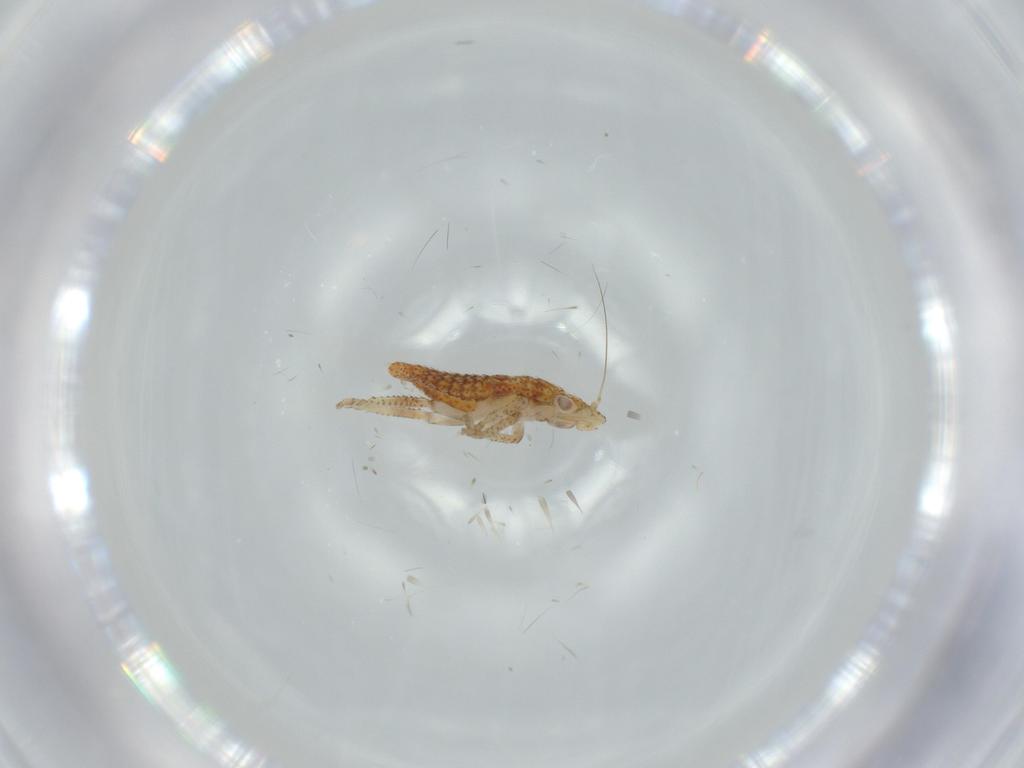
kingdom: Animalia
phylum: Arthropoda
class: Insecta
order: Hemiptera
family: Cicadellidae
